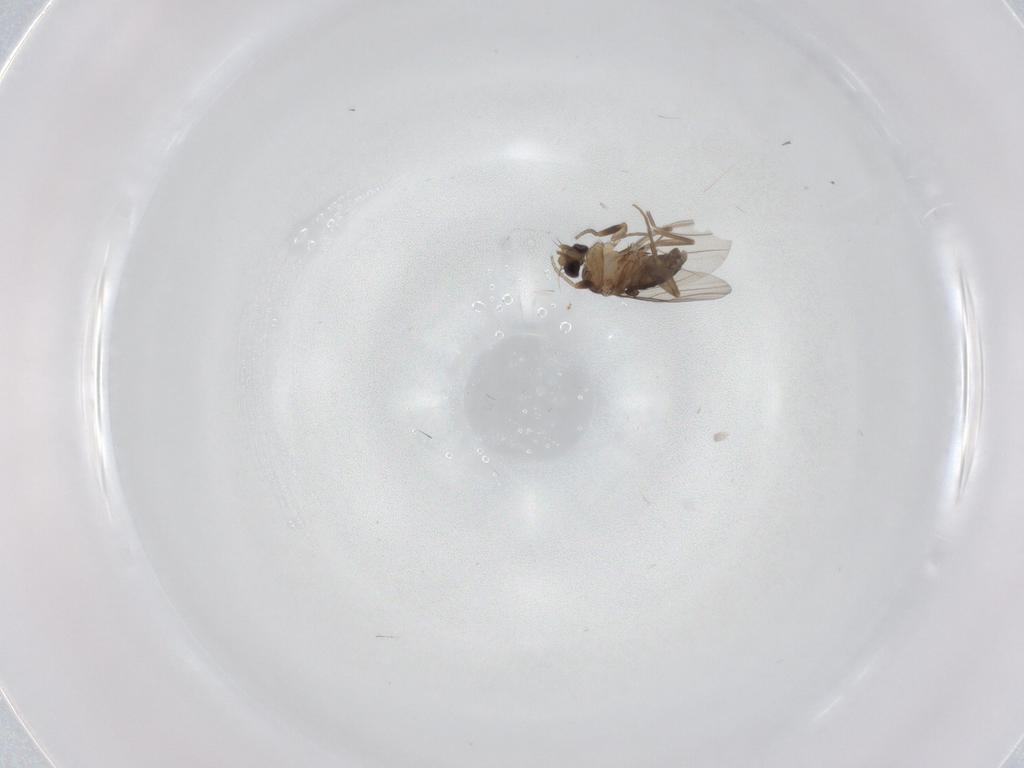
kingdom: Animalia
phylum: Arthropoda
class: Insecta
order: Diptera
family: Phoridae
